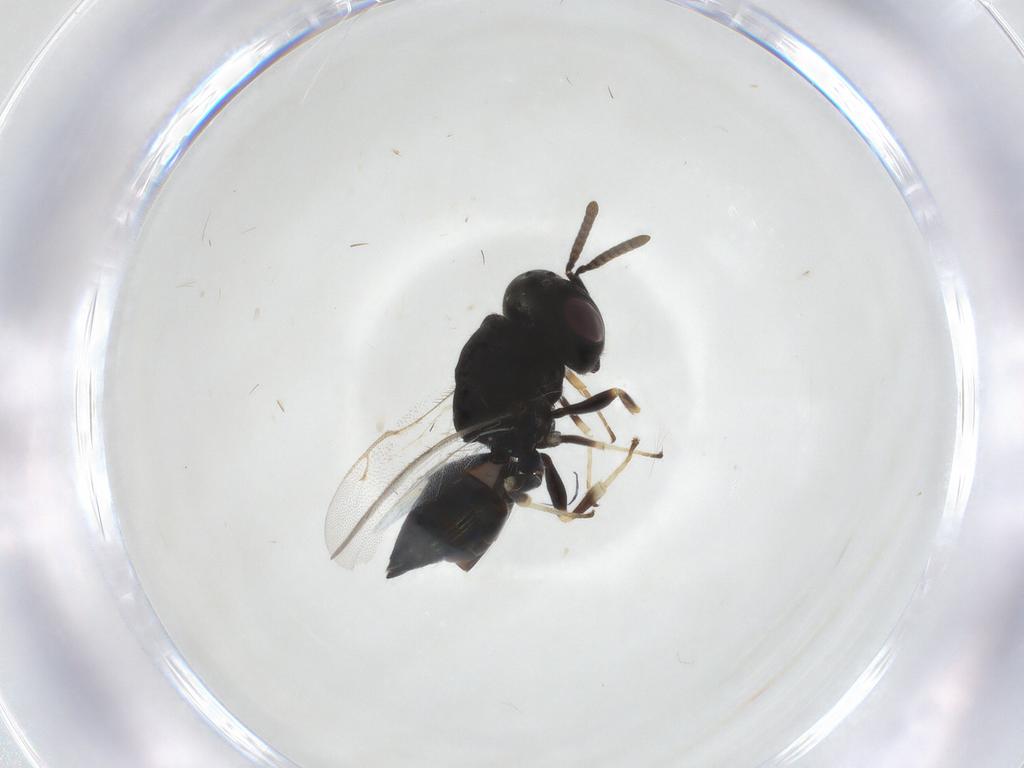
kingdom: Animalia
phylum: Arthropoda
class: Insecta
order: Hymenoptera
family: Pteromalidae
